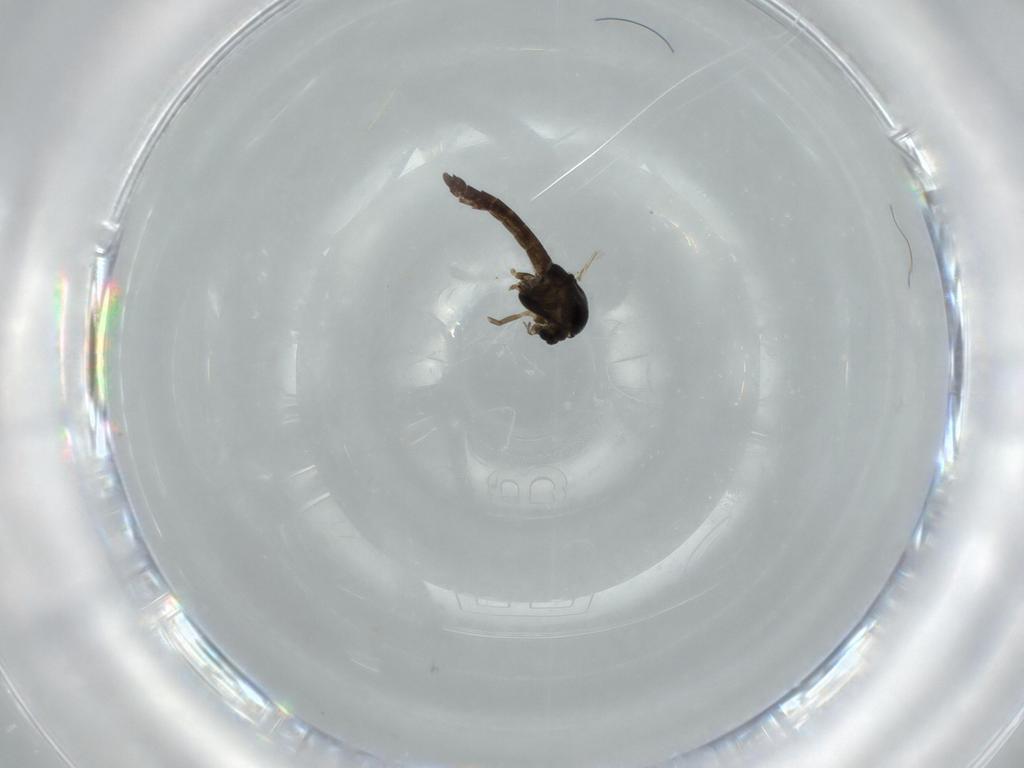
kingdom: Animalia
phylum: Arthropoda
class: Insecta
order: Diptera
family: Chironomidae
